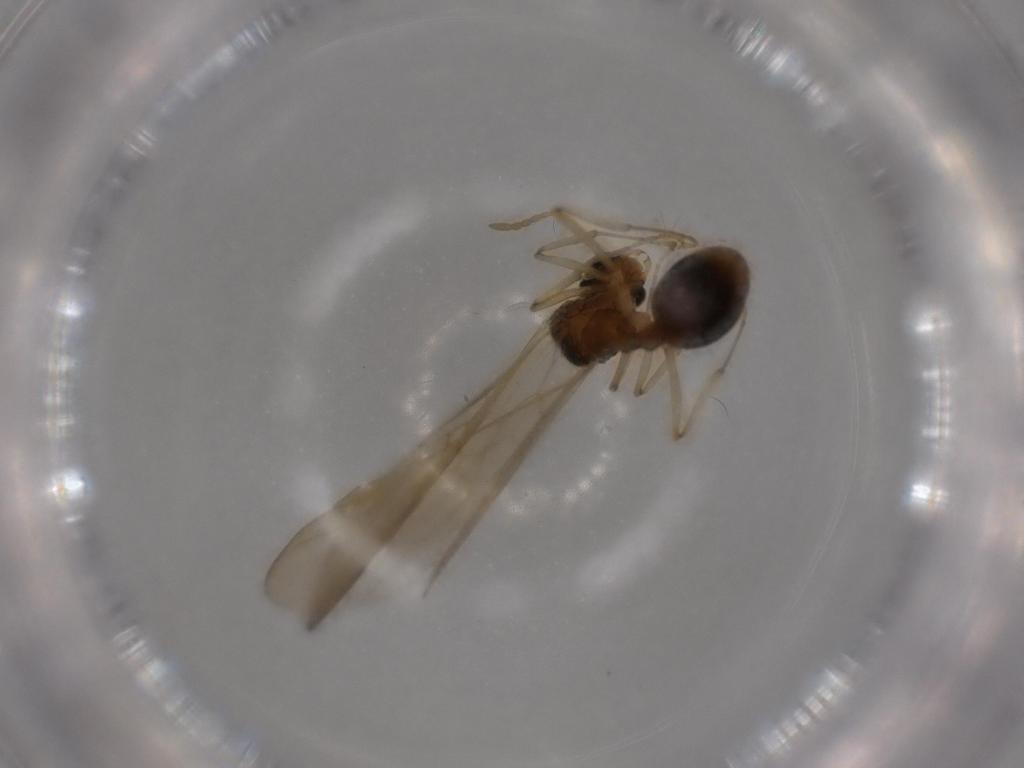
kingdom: Animalia
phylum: Arthropoda
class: Insecta
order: Hymenoptera
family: Formicidae
